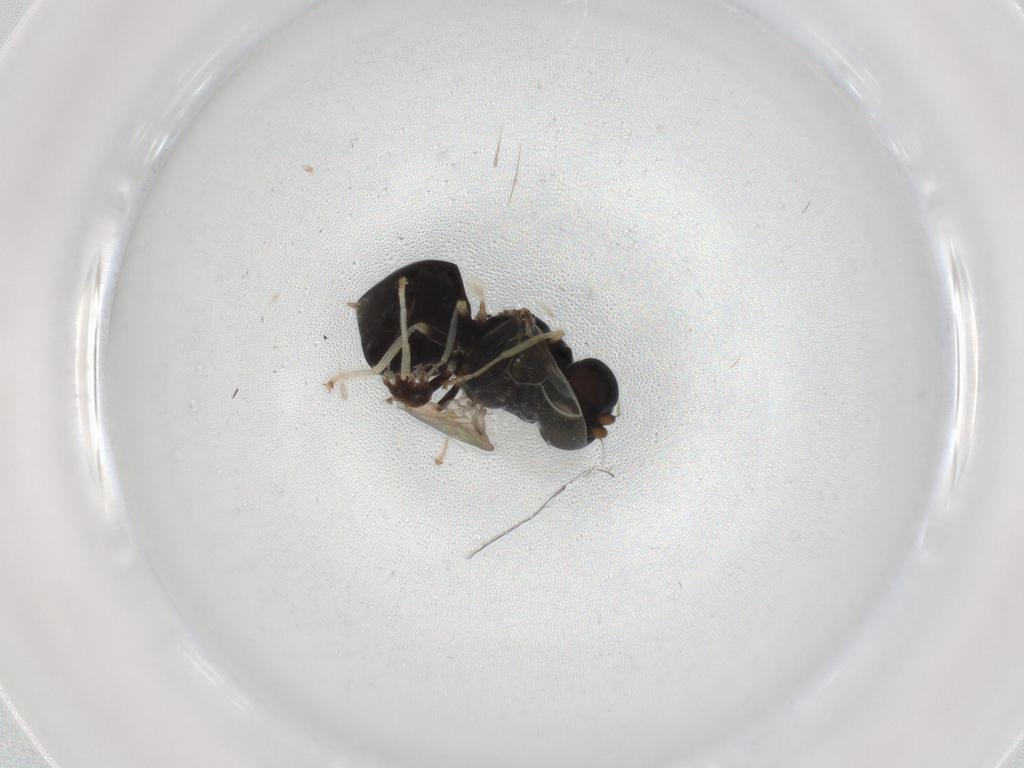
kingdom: Animalia
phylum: Arthropoda
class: Insecta
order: Diptera
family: Stratiomyidae
